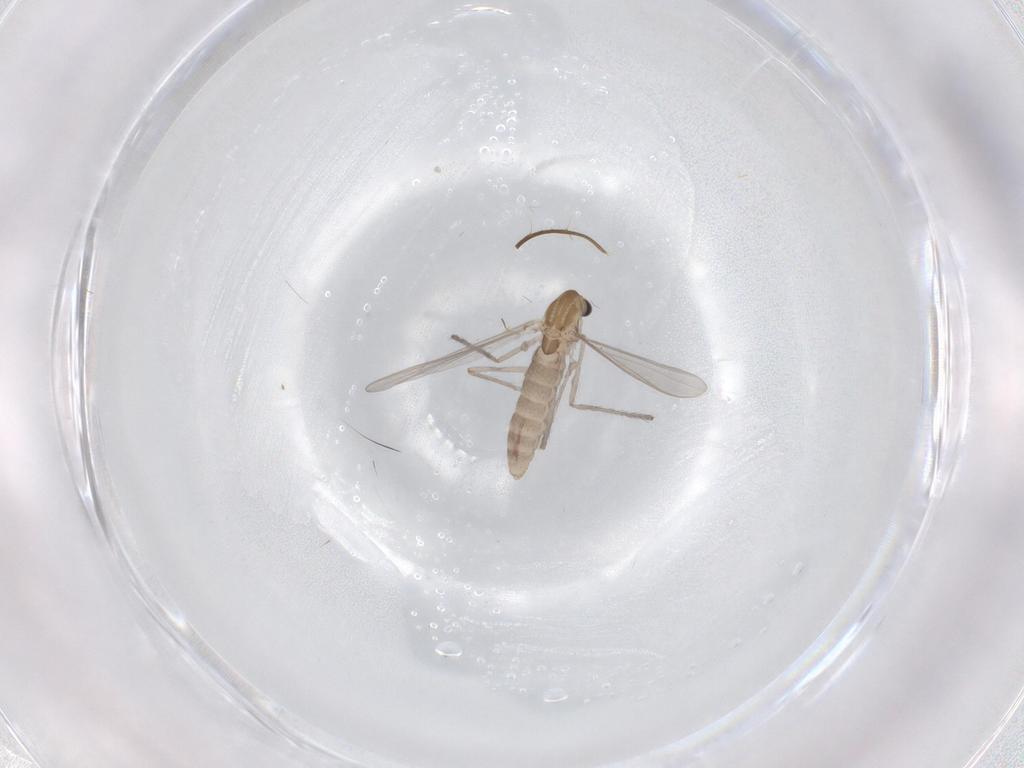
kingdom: Animalia
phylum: Arthropoda
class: Insecta
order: Diptera
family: Chironomidae
